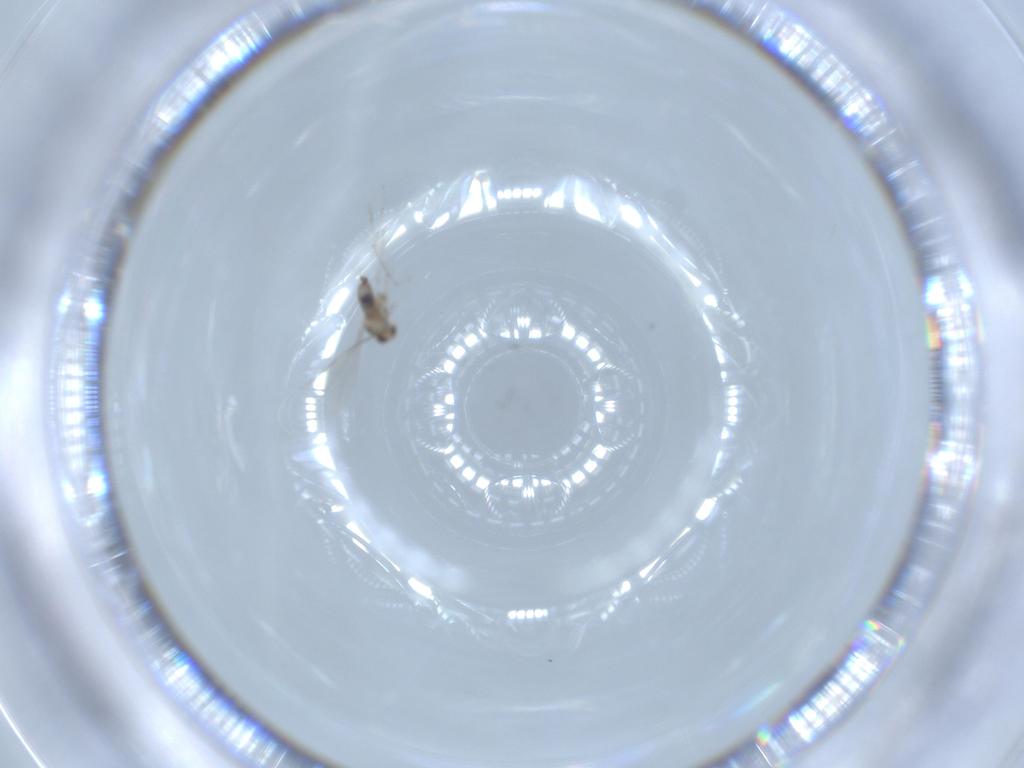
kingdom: Animalia
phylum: Arthropoda
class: Insecta
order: Diptera
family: Cecidomyiidae
